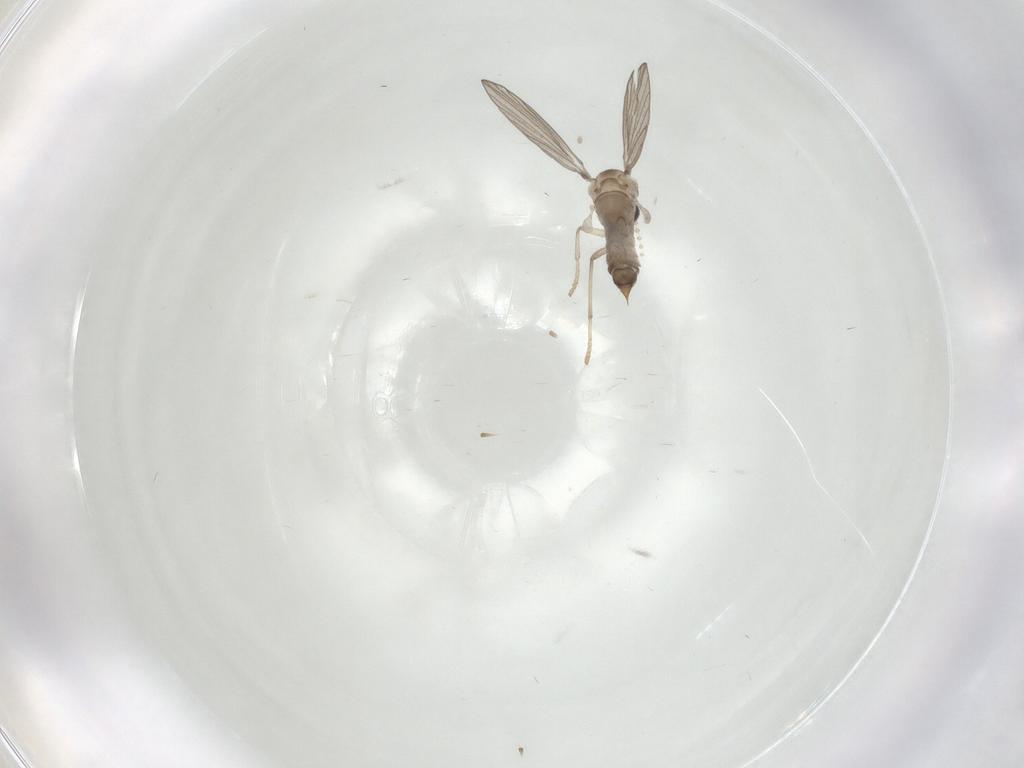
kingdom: Animalia
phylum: Arthropoda
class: Insecta
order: Diptera
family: Psychodidae
